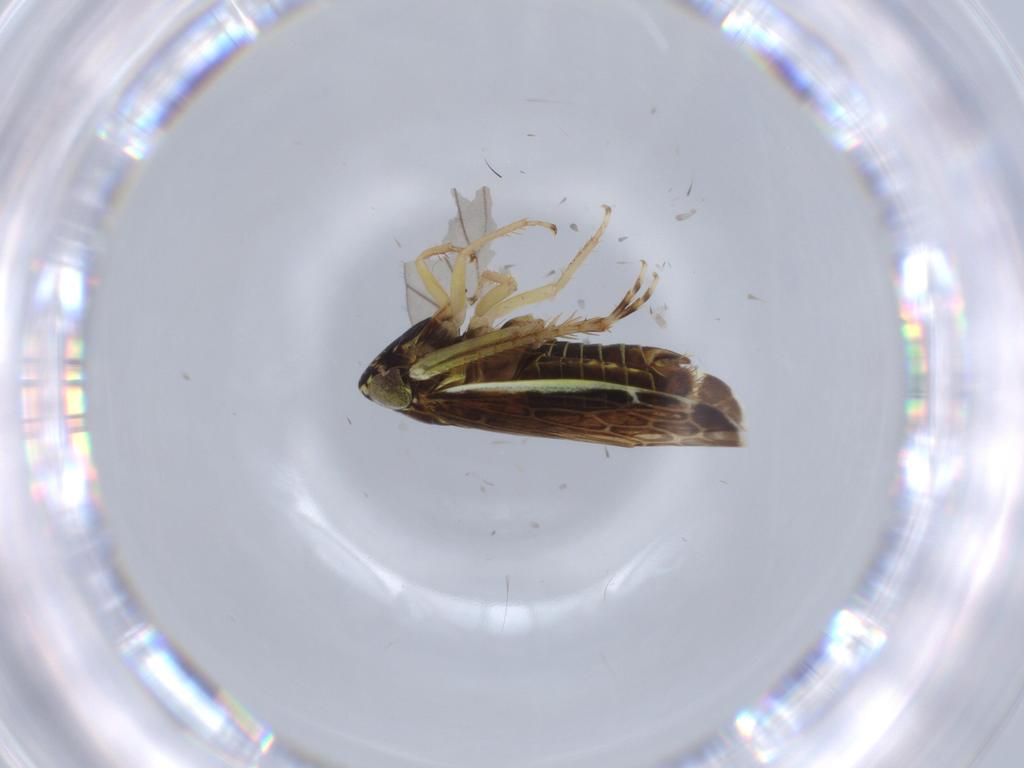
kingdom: Animalia
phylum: Arthropoda
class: Insecta
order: Hemiptera
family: Cicadellidae
